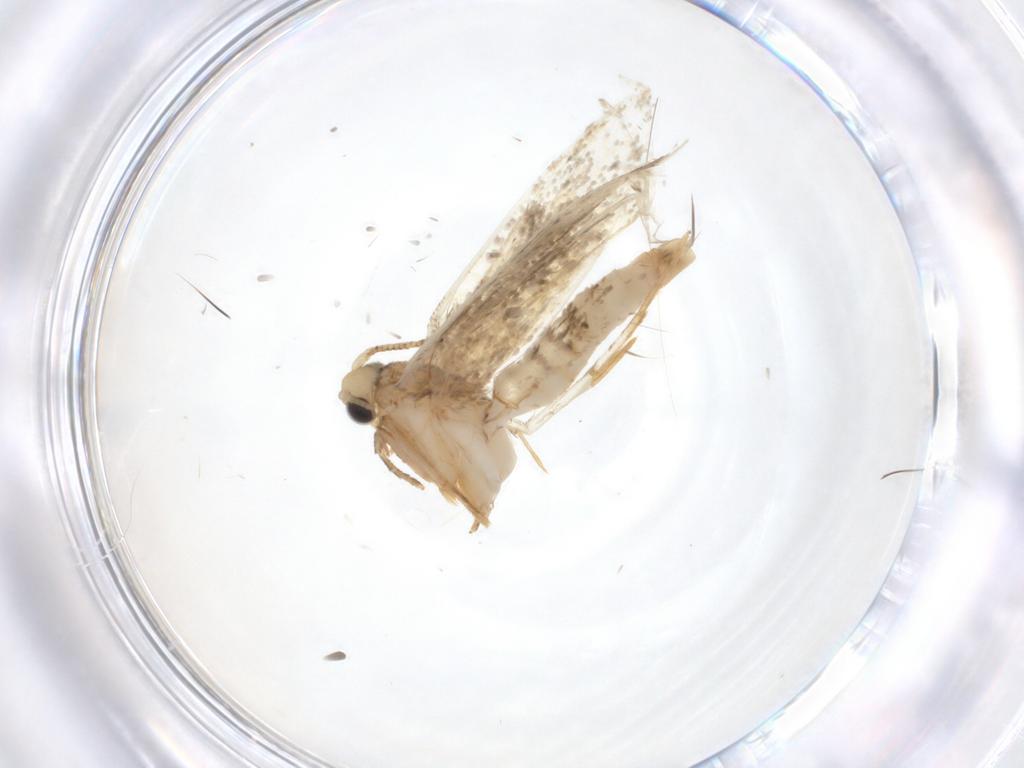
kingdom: Animalia
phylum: Arthropoda
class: Insecta
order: Lepidoptera
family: Tineidae
